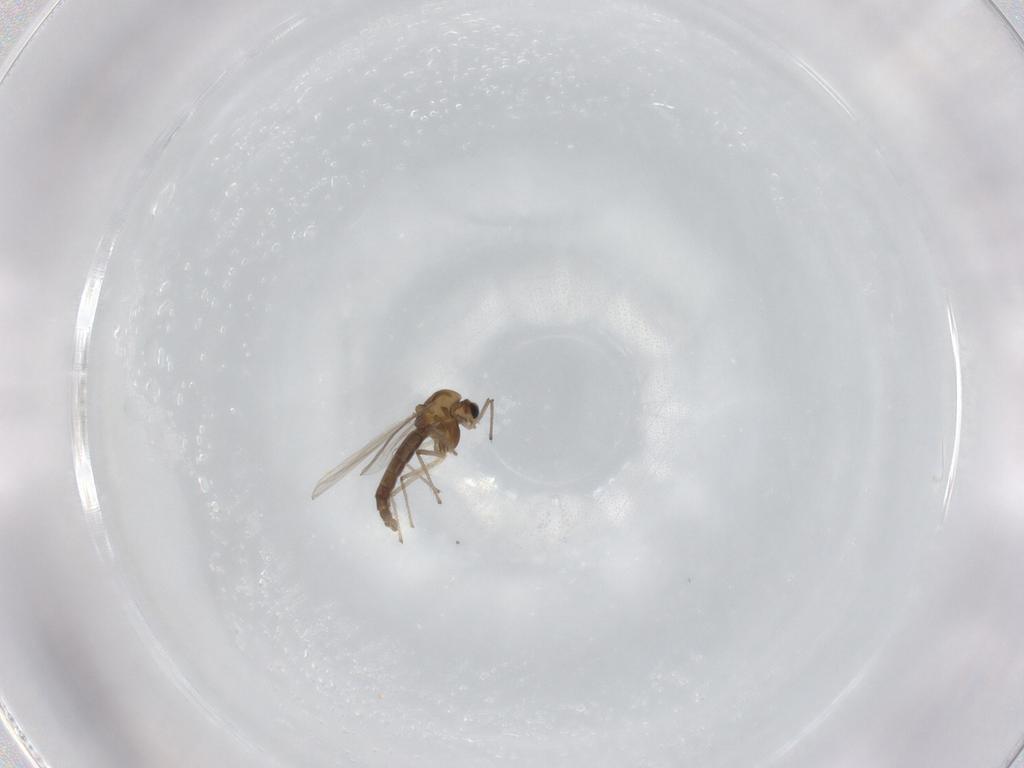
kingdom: Animalia
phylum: Arthropoda
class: Insecta
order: Diptera
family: Chironomidae
